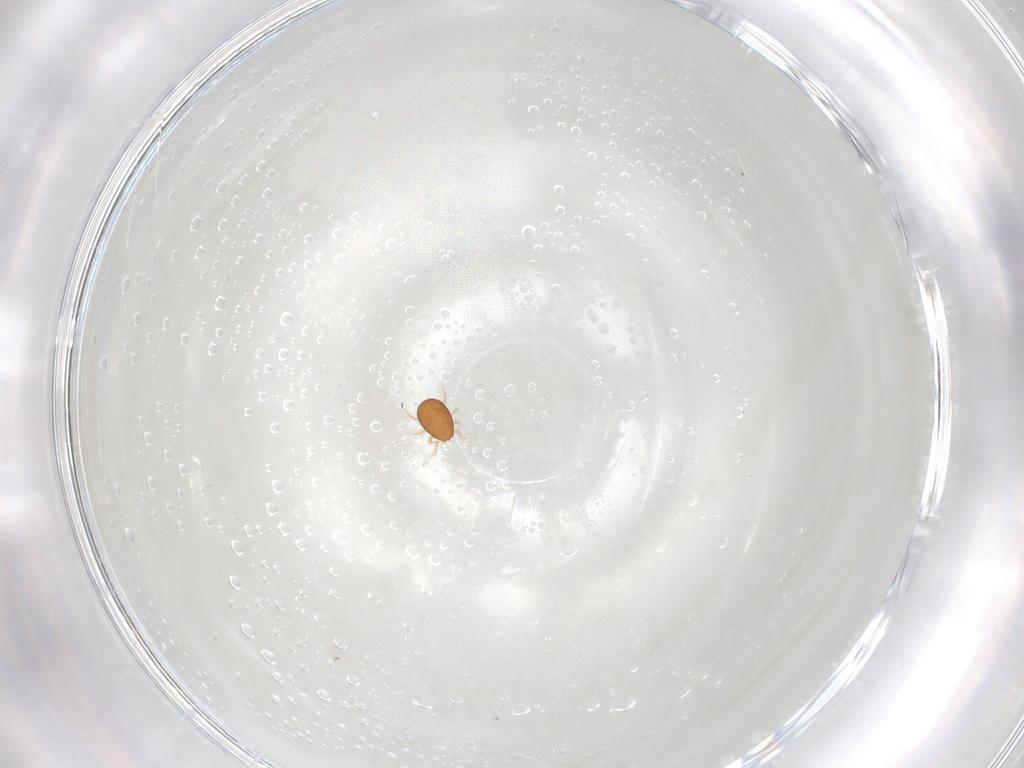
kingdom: Animalia
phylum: Arthropoda
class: Arachnida
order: Mesostigmata
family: Eviphididae
